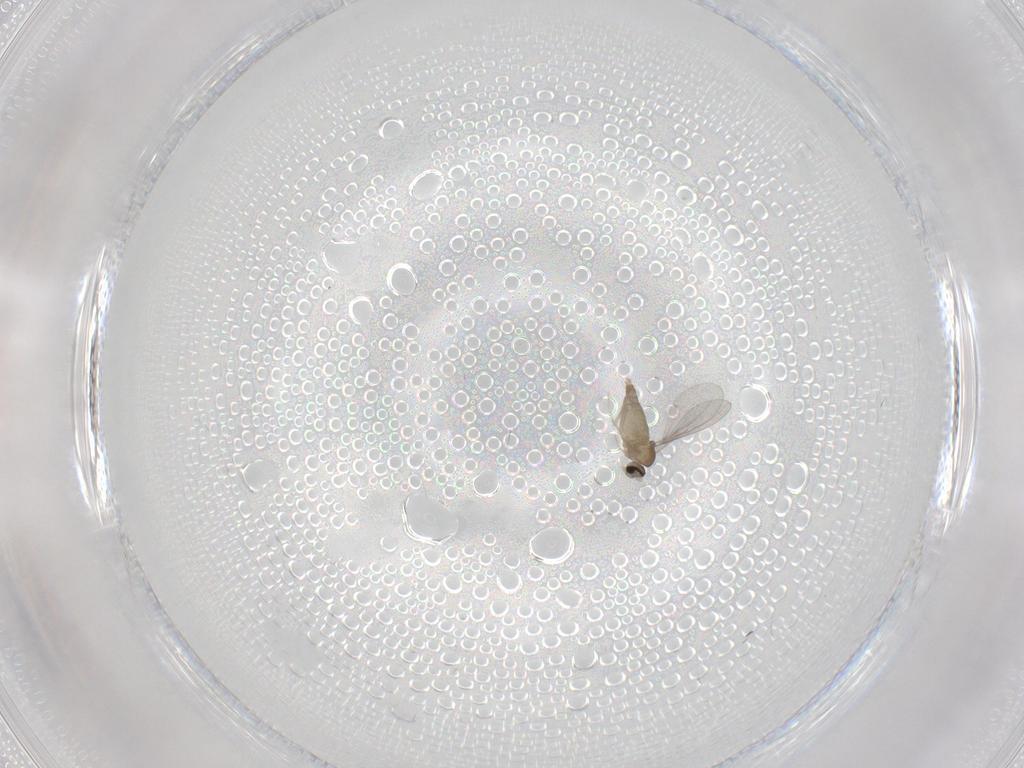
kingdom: Animalia
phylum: Arthropoda
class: Insecta
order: Diptera
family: Cecidomyiidae
